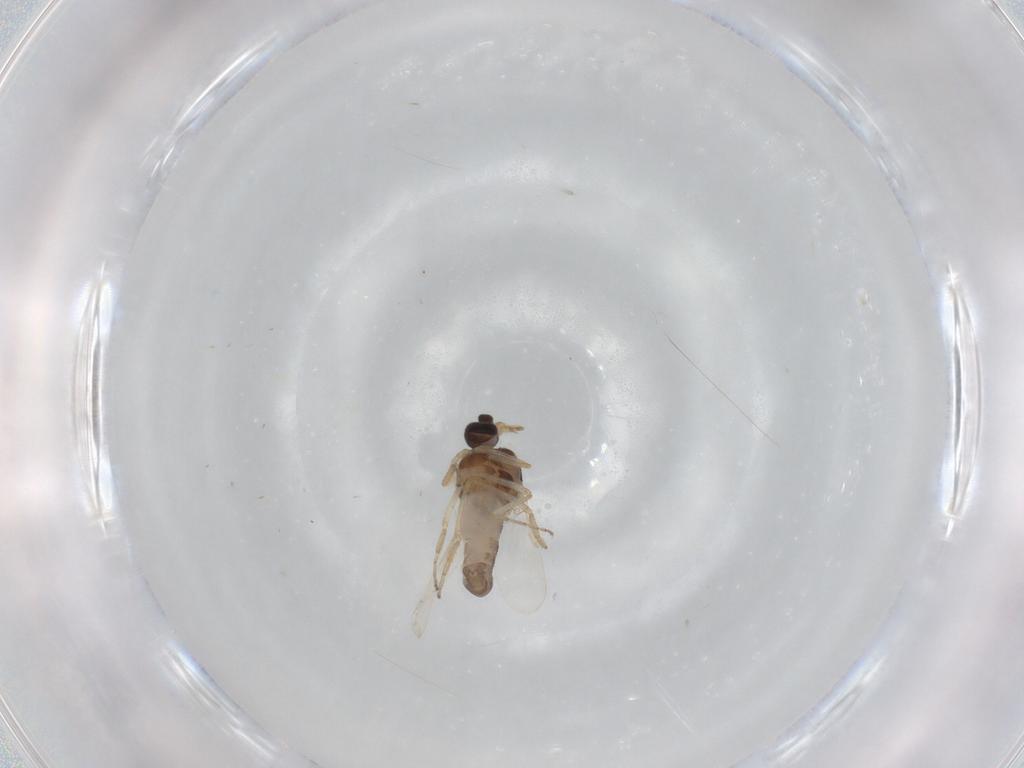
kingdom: Animalia
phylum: Arthropoda
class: Insecta
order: Diptera
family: Ceratopogonidae
